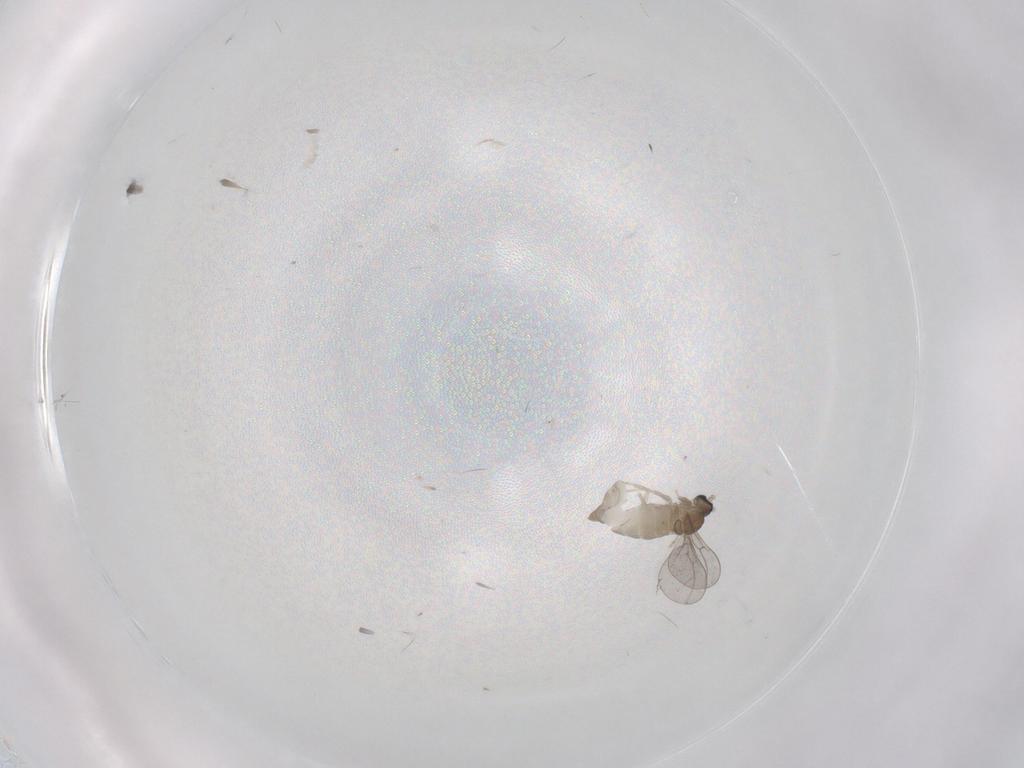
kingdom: Animalia
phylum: Arthropoda
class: Insecta
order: Diptera
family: Cecidomyiidae
